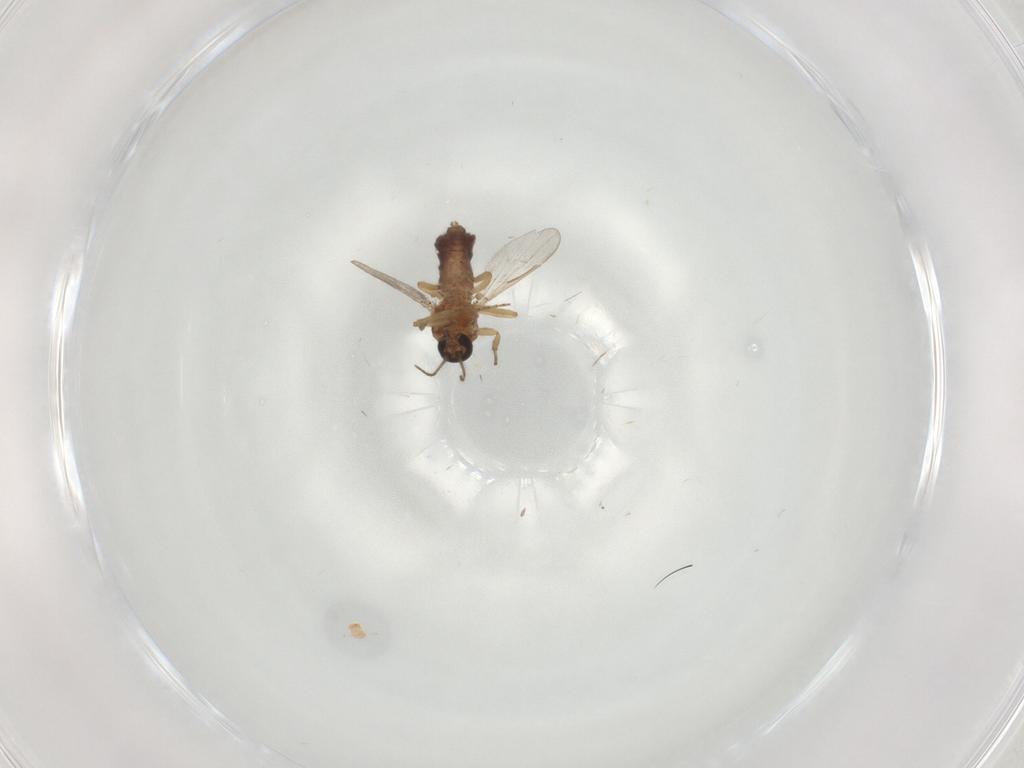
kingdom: Animalia
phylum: Arthropoda
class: Insecta
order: Diptera
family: Ceratopogonidae
